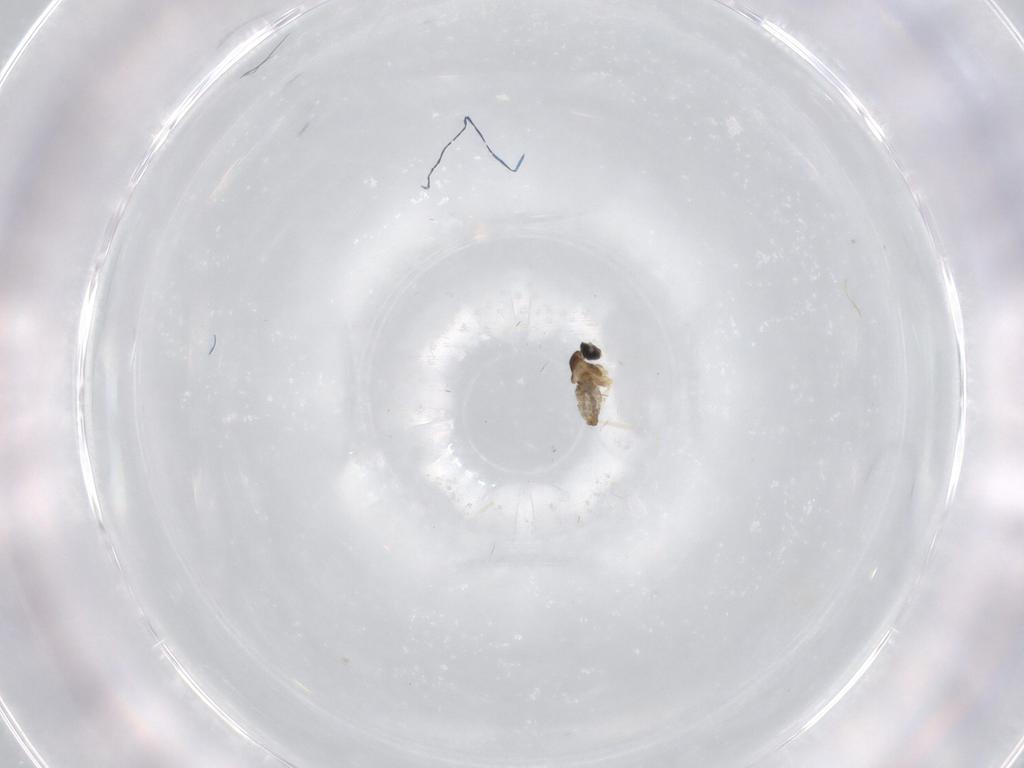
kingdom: Animalia
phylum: Arthropoda
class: Insecta
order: Diptera
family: Cecidomyiidae
